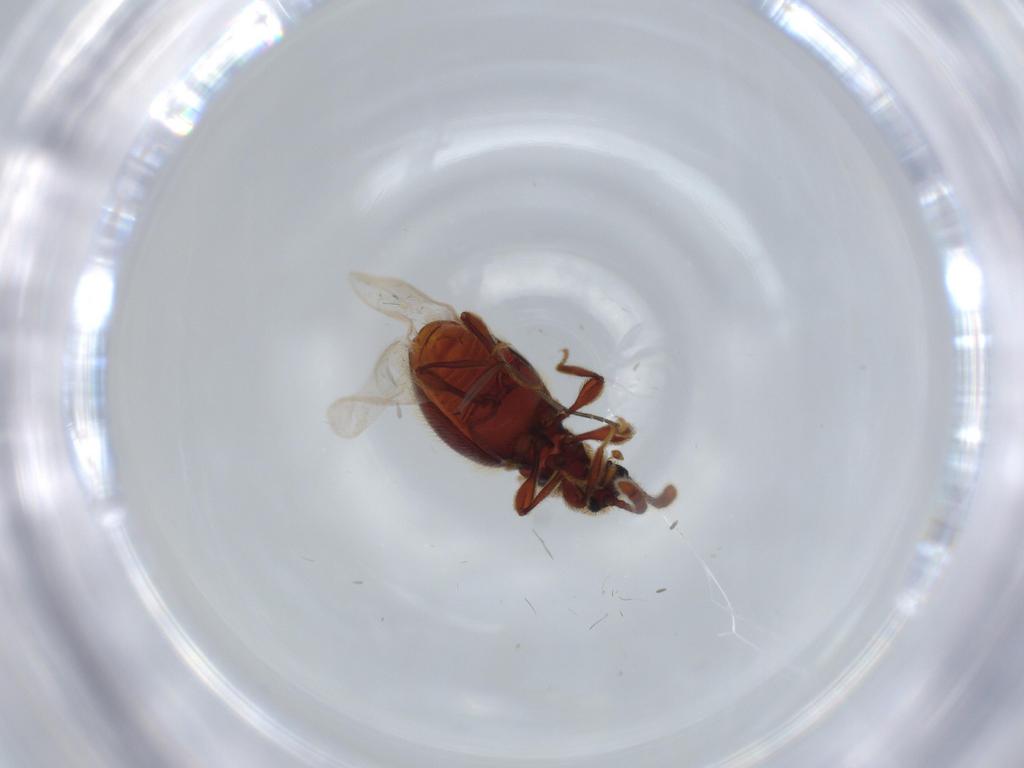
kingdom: Animalia
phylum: Arthropoda
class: Insecta
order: Coleoptera
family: Staphylinidae
